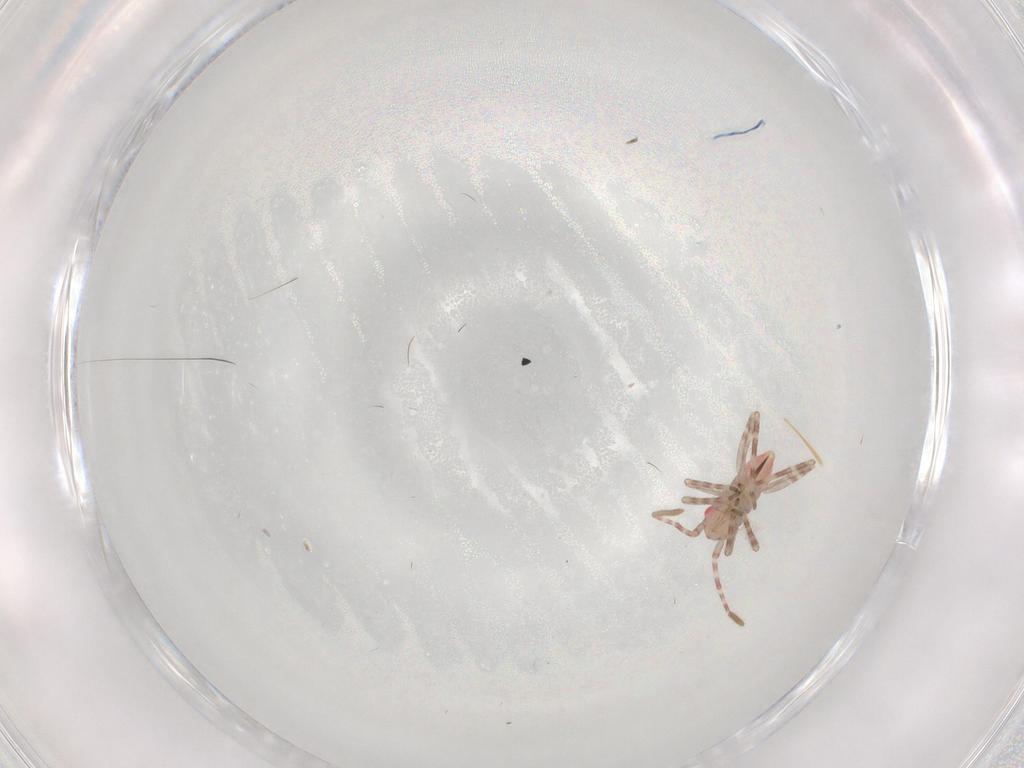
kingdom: Animalia
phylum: Arthropoda
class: Insecta
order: Hemiptera
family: Miridae
